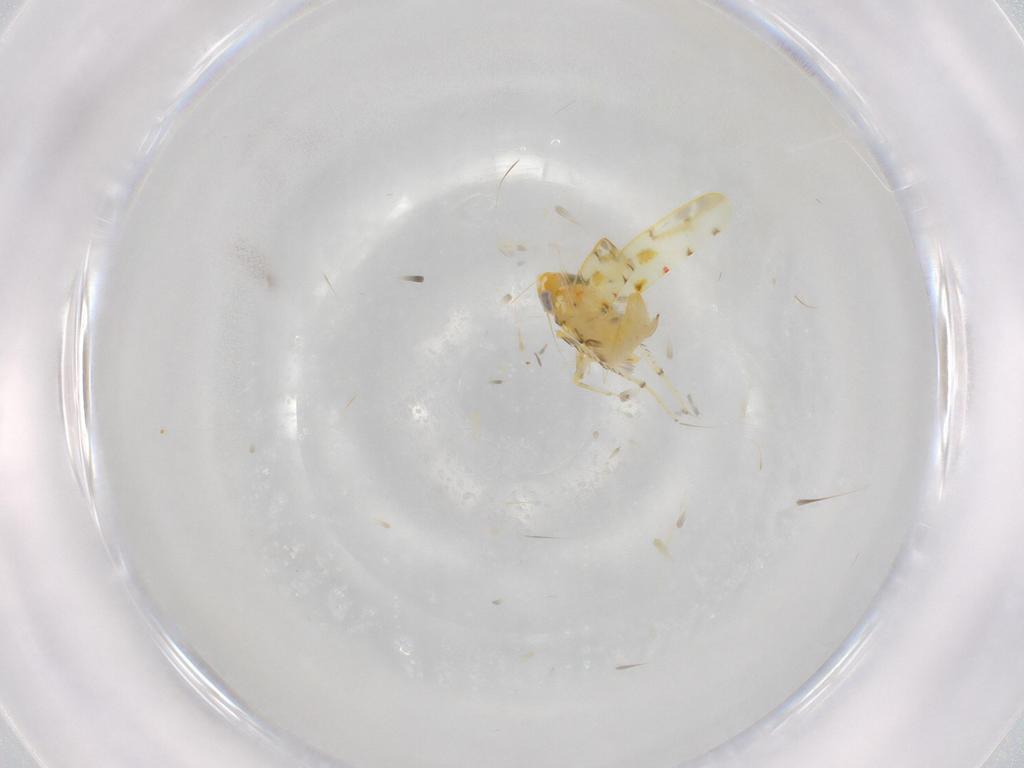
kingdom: Animalia
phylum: Arthropoda
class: Insecta
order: Hemiptera
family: Cicadellidae
